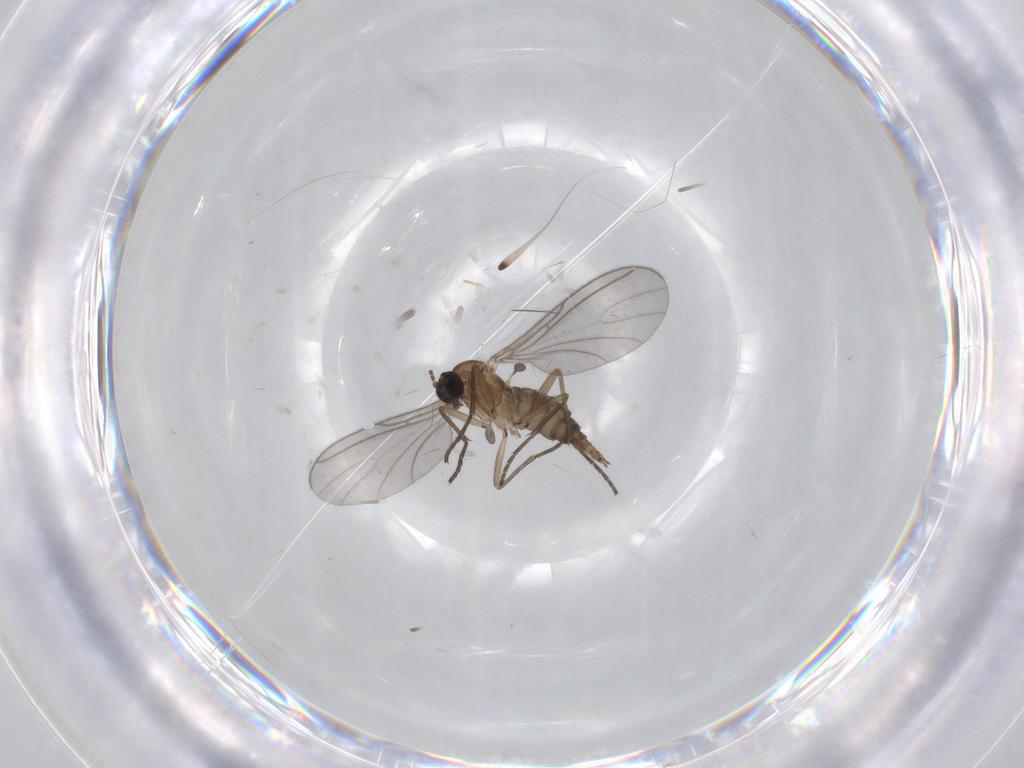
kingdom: Animalia
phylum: Arthropoda
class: Insecta
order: Diptera
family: Sciaridae
